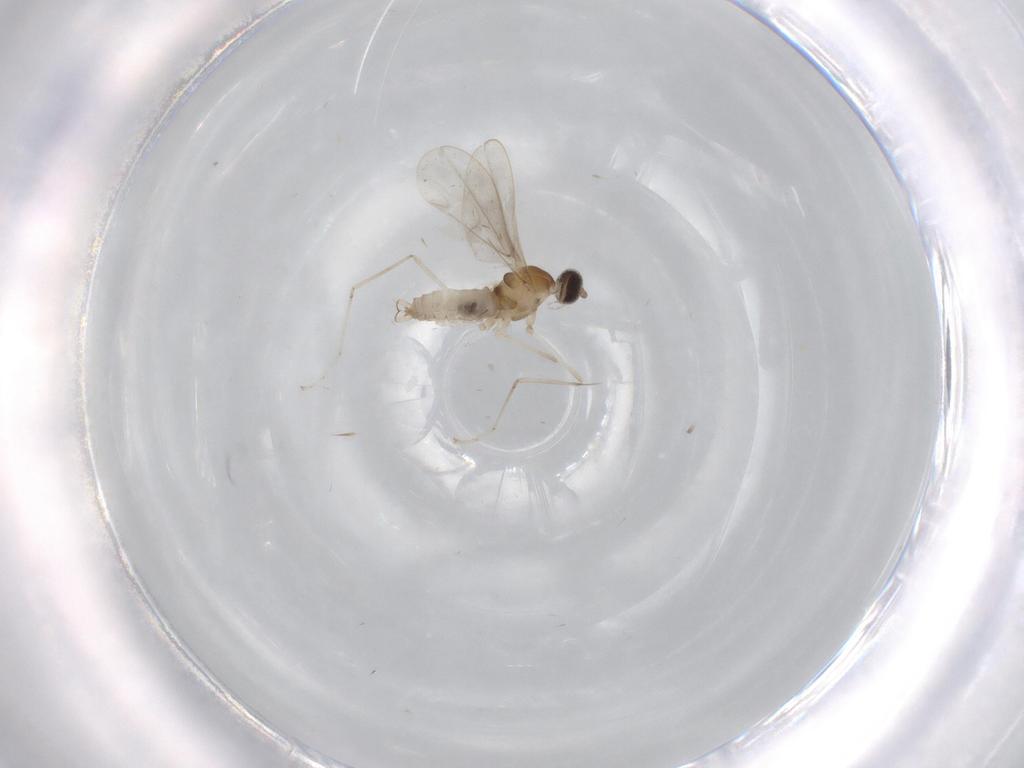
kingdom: Animalia
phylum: Arthropoda
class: Insecta
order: Diptera
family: Cecidomyiidae
